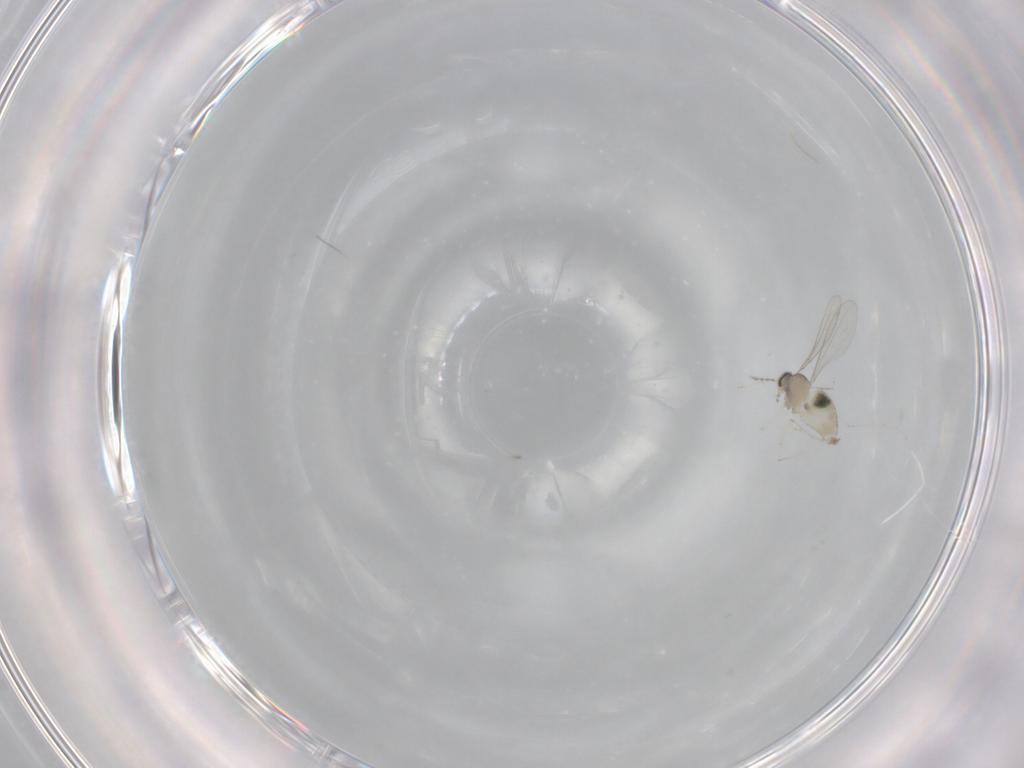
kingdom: Animalia
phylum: Arthropoda
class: Insecta
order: Diptera
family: Cecidomyiidae
